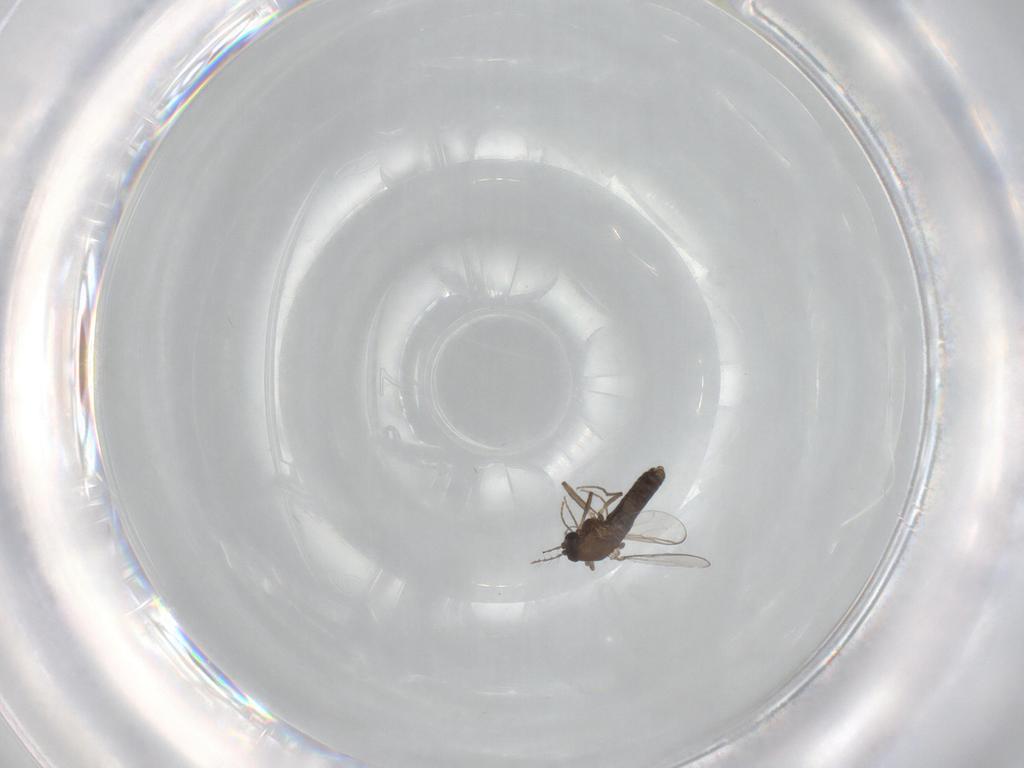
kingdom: Animalia
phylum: Arthropoda
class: Insecta
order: Diptera
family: Chironomidae
